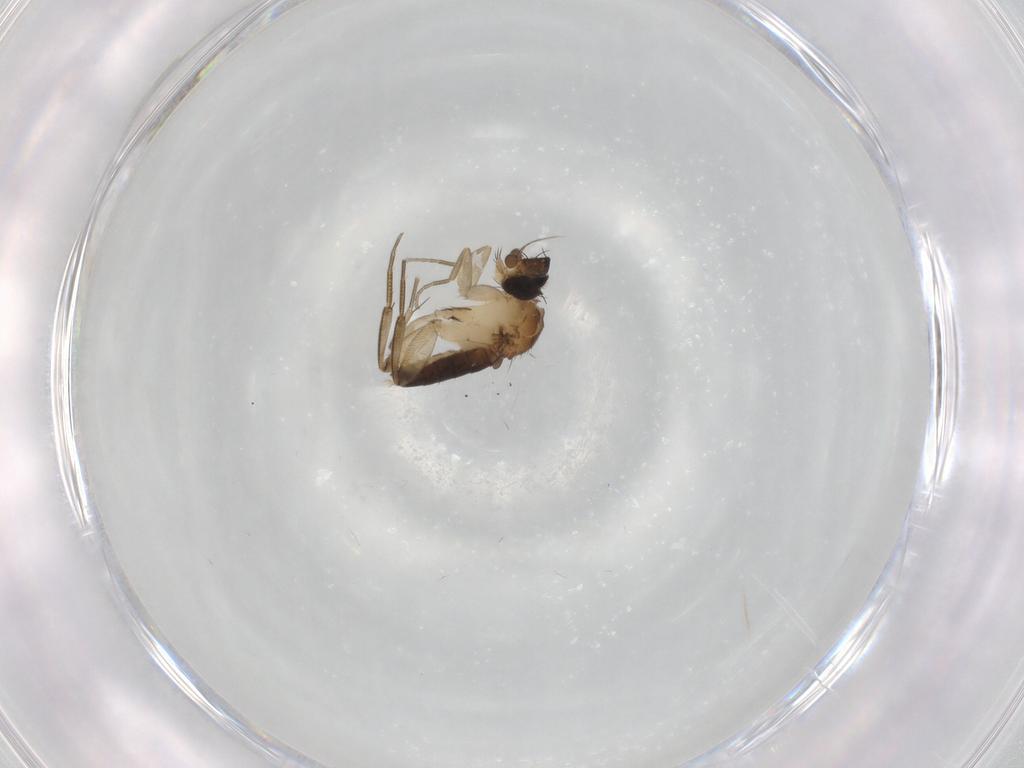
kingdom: Animalia
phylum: Arthropoda
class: Insecta
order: Diptera
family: Phoridae
